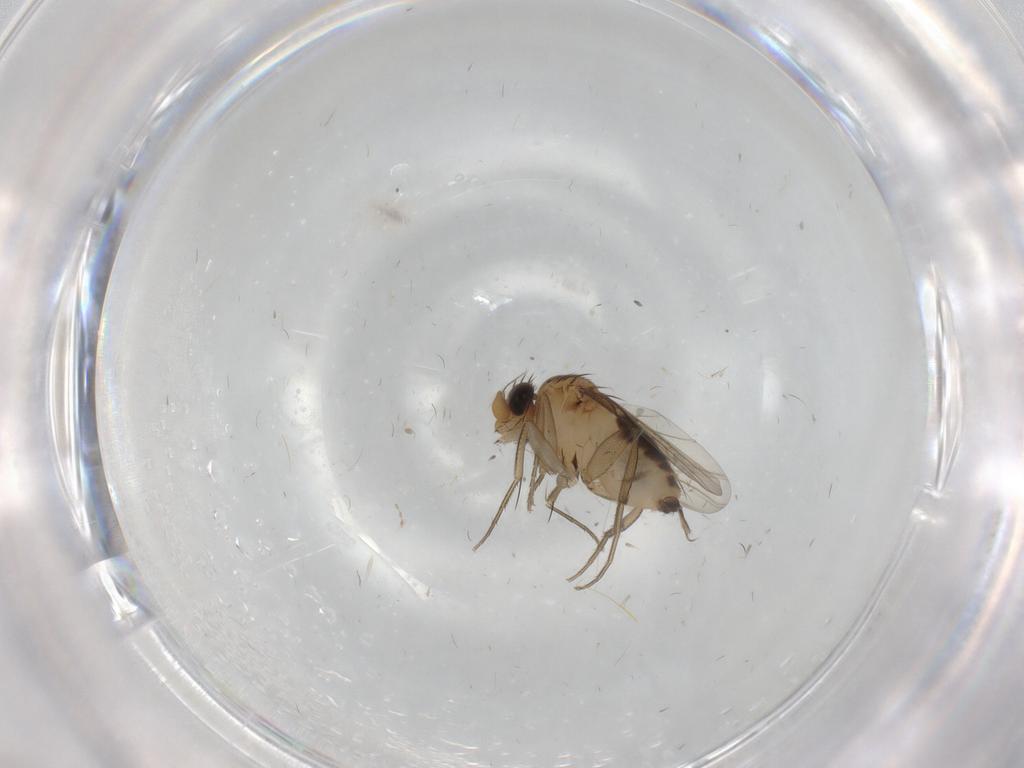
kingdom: Animalia
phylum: Arthropoda
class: Insecta
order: Diptera
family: Phoridae
